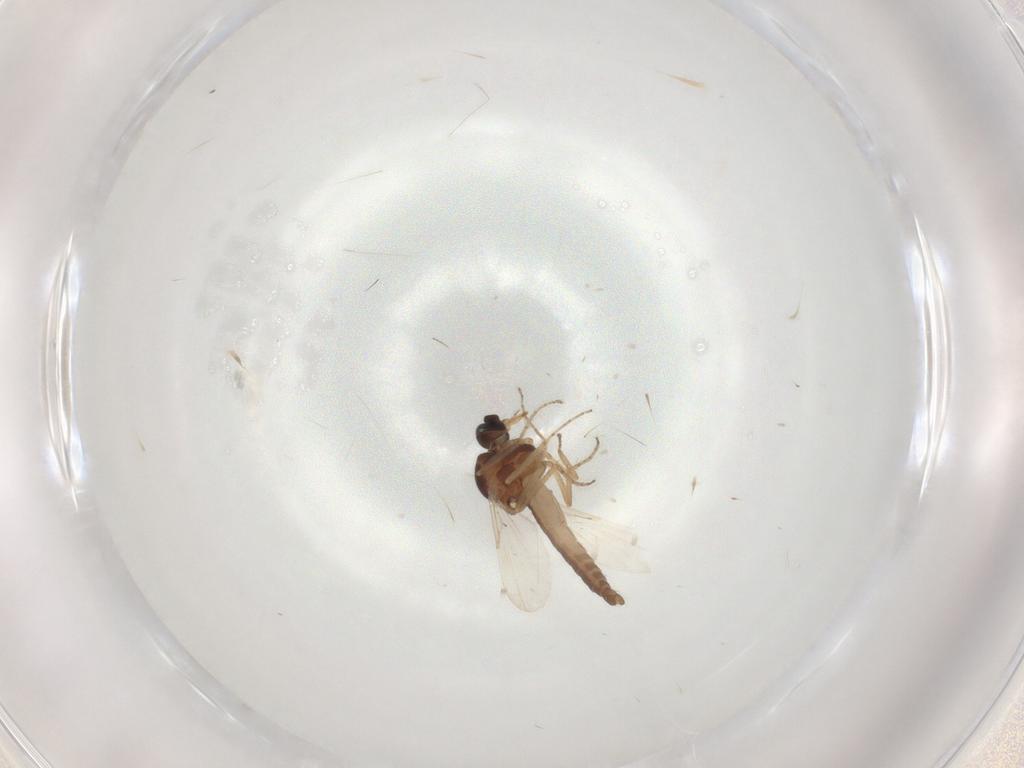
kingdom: Animalia
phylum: Arthropoda
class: Insecta
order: Diptera
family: Ceratopogonidae
